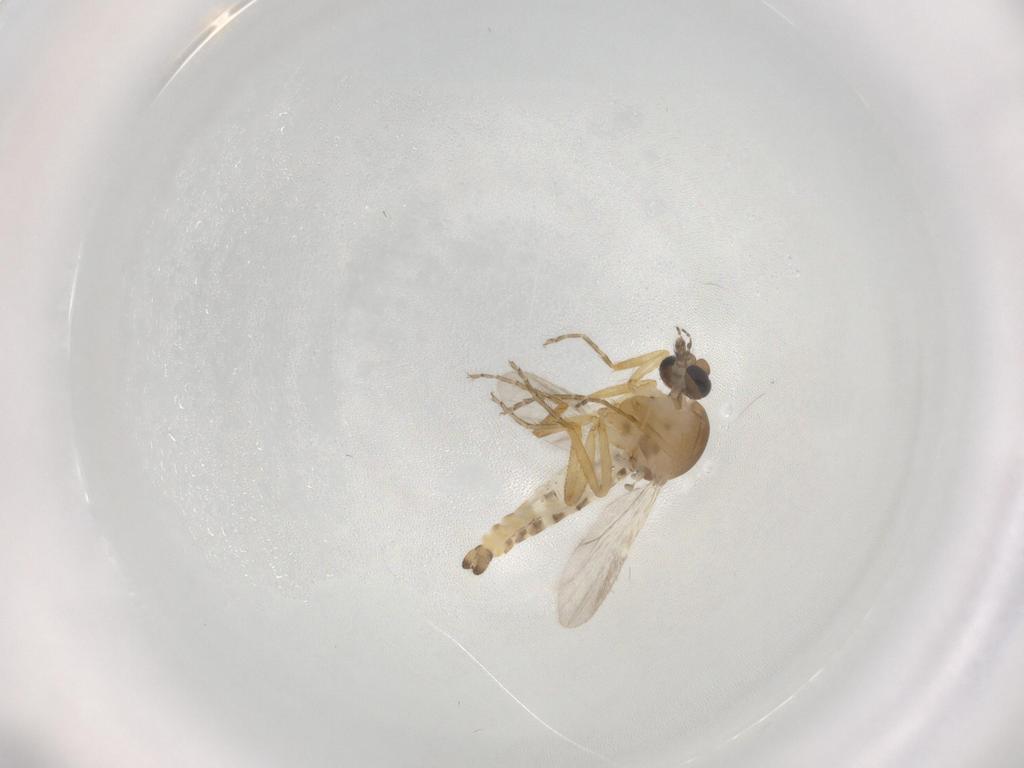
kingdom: Animalia
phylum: Arthropoda
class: Insecta
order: Diptera
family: Ceratopogonidae
